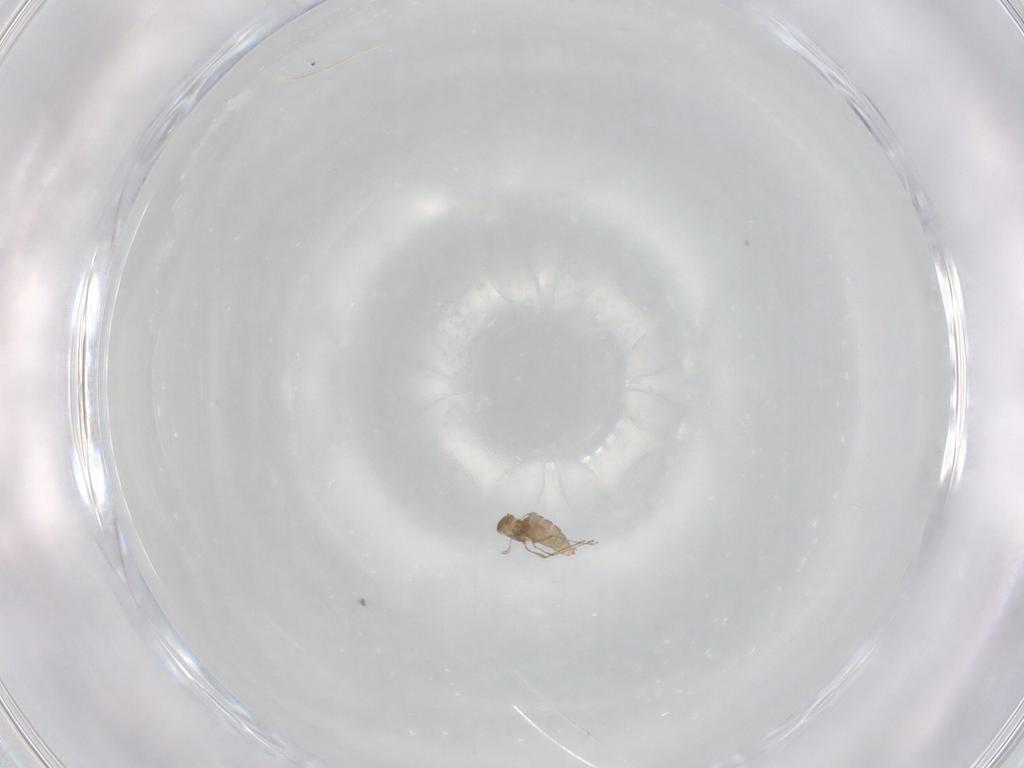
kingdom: Animalia
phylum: Arthropoda
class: Insecta
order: Diptera
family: Cecidomyiidae
